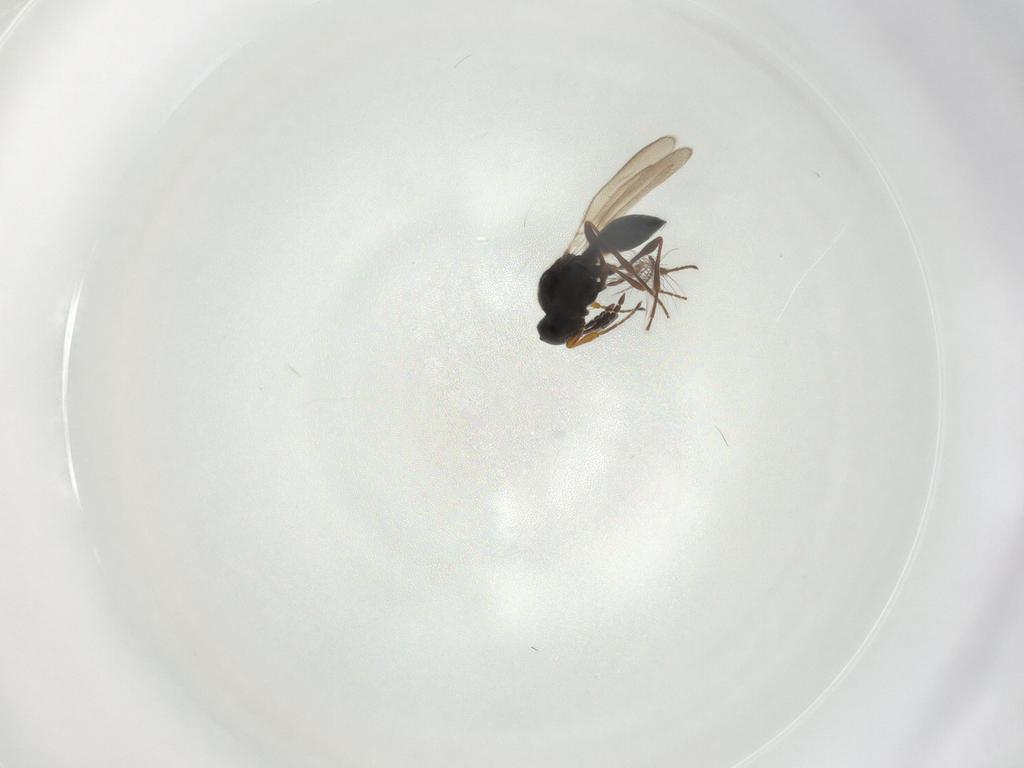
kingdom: Animalia
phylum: Arthropoda
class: Insecta
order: Hymenoptera
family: Platygastridae
